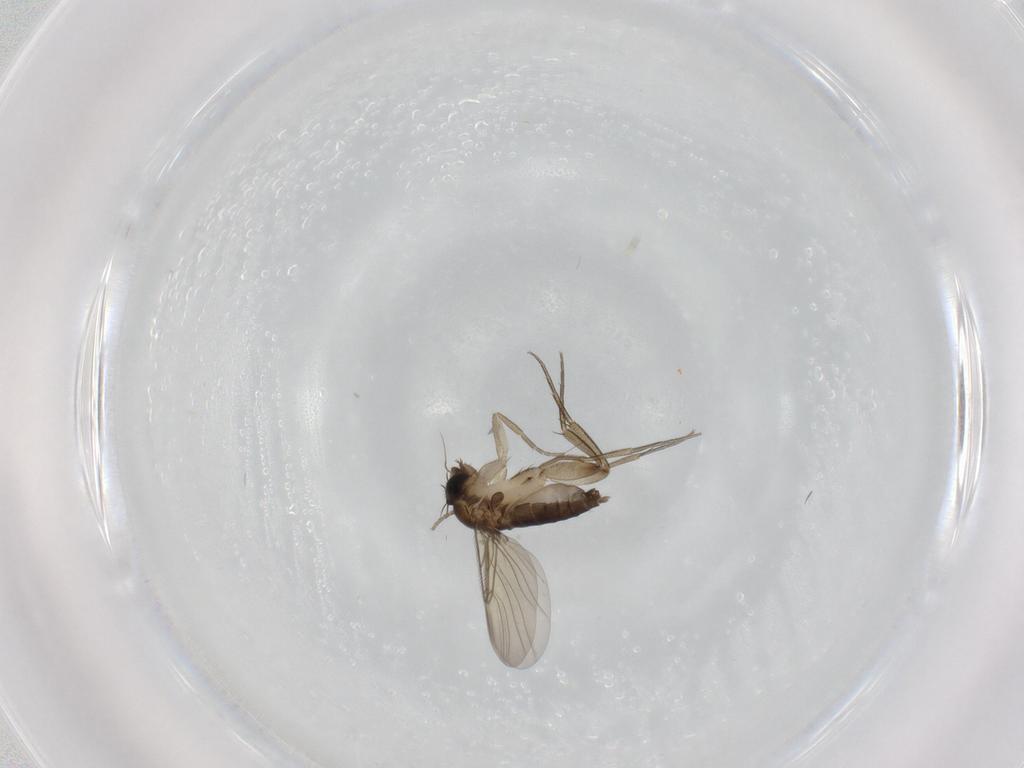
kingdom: Animalia
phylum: Arthropoda
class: Insecta
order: Diptera
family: Phoridae
